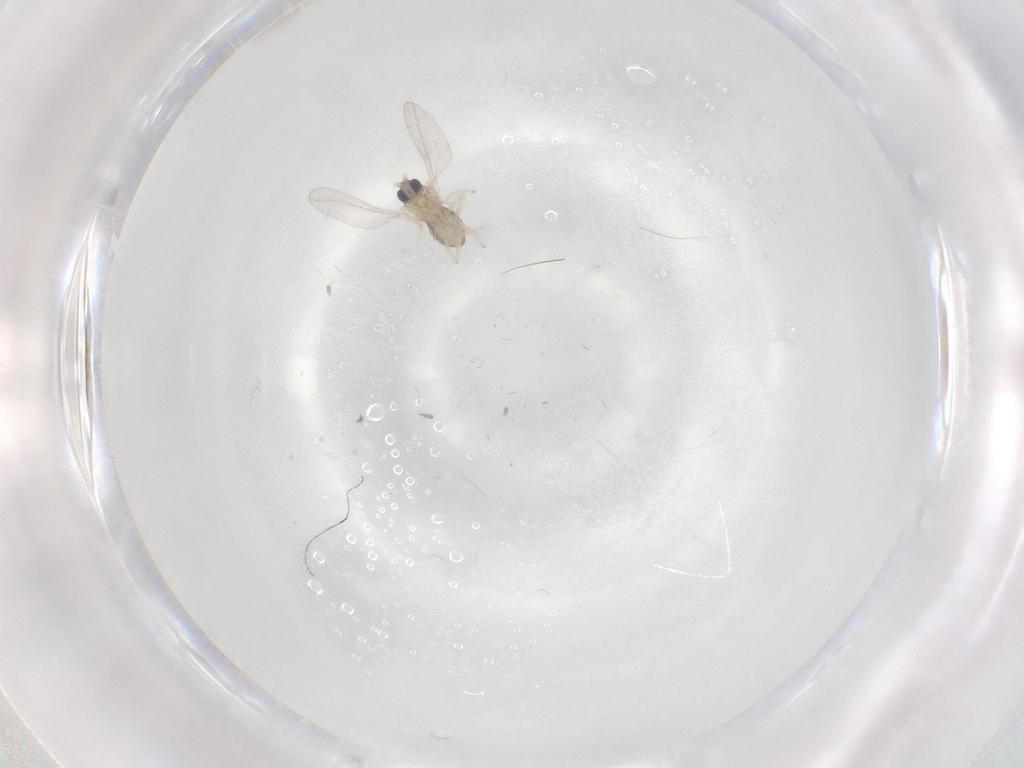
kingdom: Animalia
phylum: Arthropoda
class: Insecta
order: Diptera
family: Cecidomyiidae
